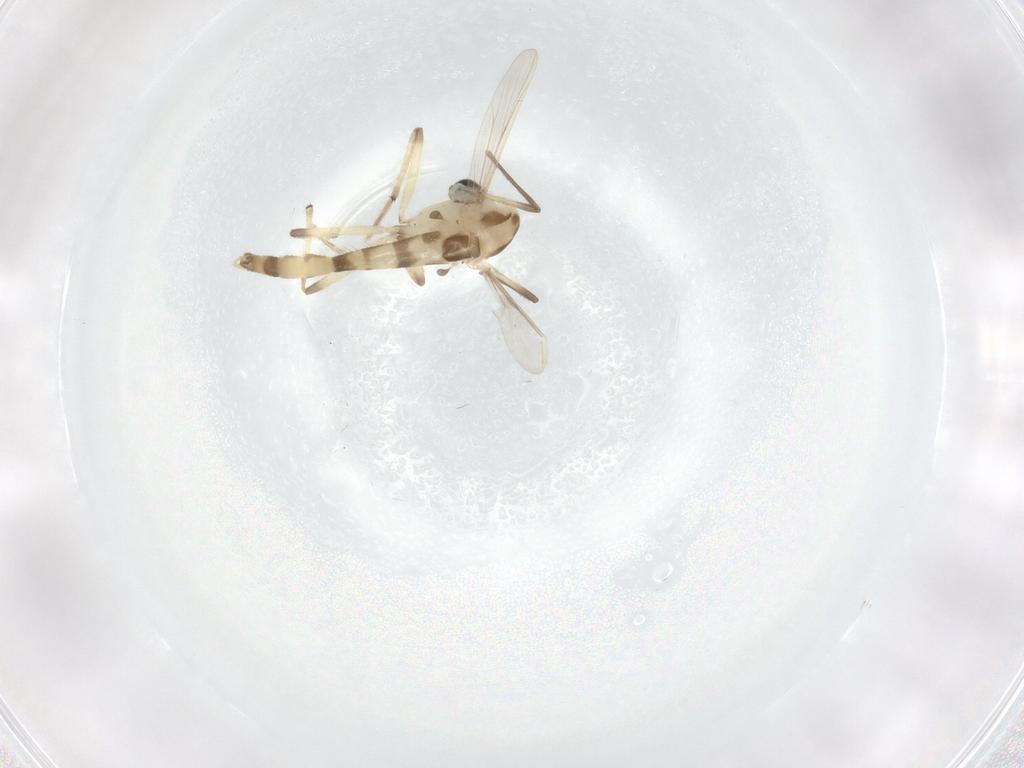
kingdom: Animalia
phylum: Arthropoda
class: Insecta
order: Diptera
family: Chironomidae
